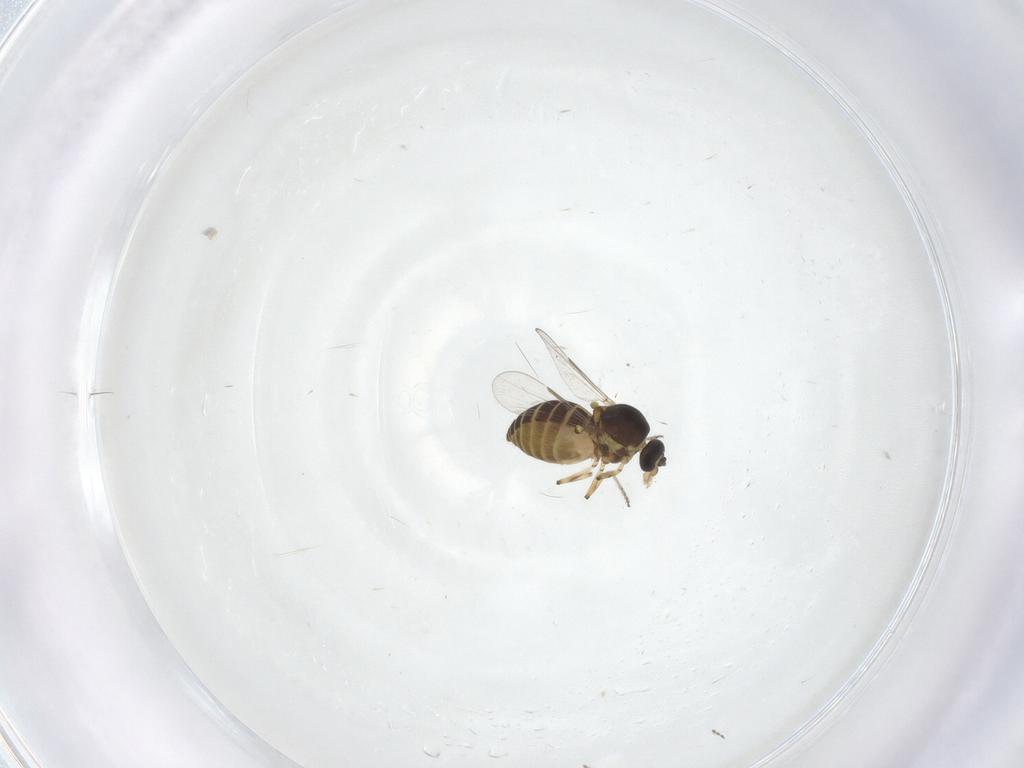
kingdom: Animalia
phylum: Arthropoda
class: Insecta
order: Diptera
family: Ceratopogonidae
